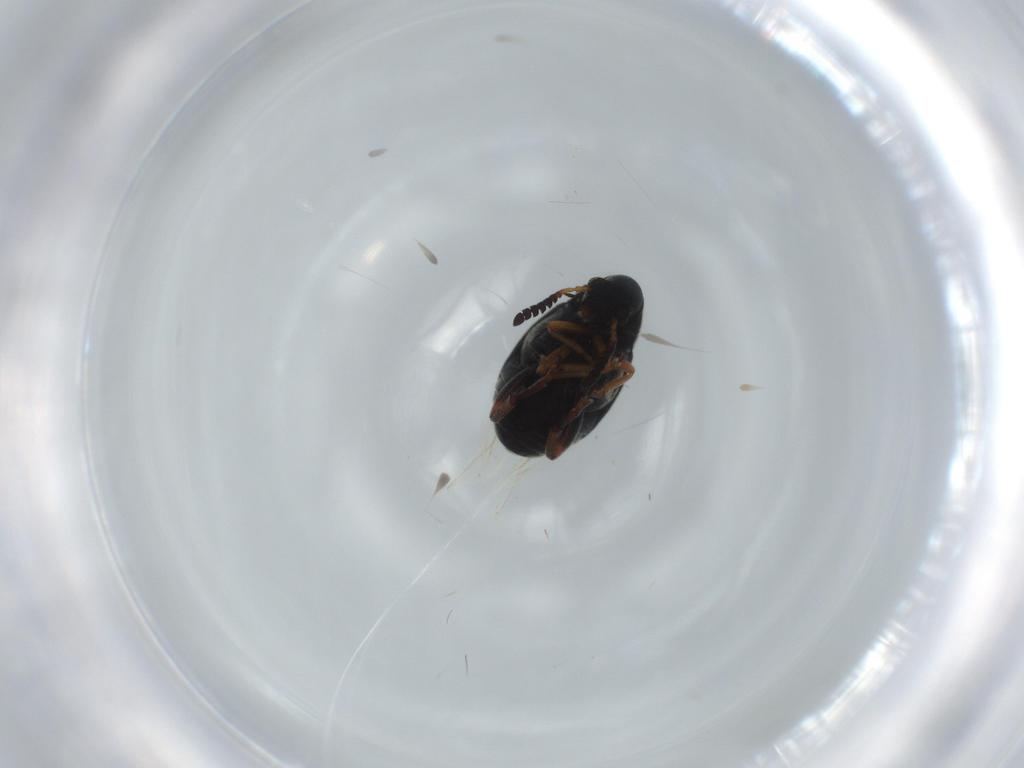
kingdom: Animalia
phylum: Arthropoda
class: Insecta
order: Coleoptera
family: Chrysomelidae
